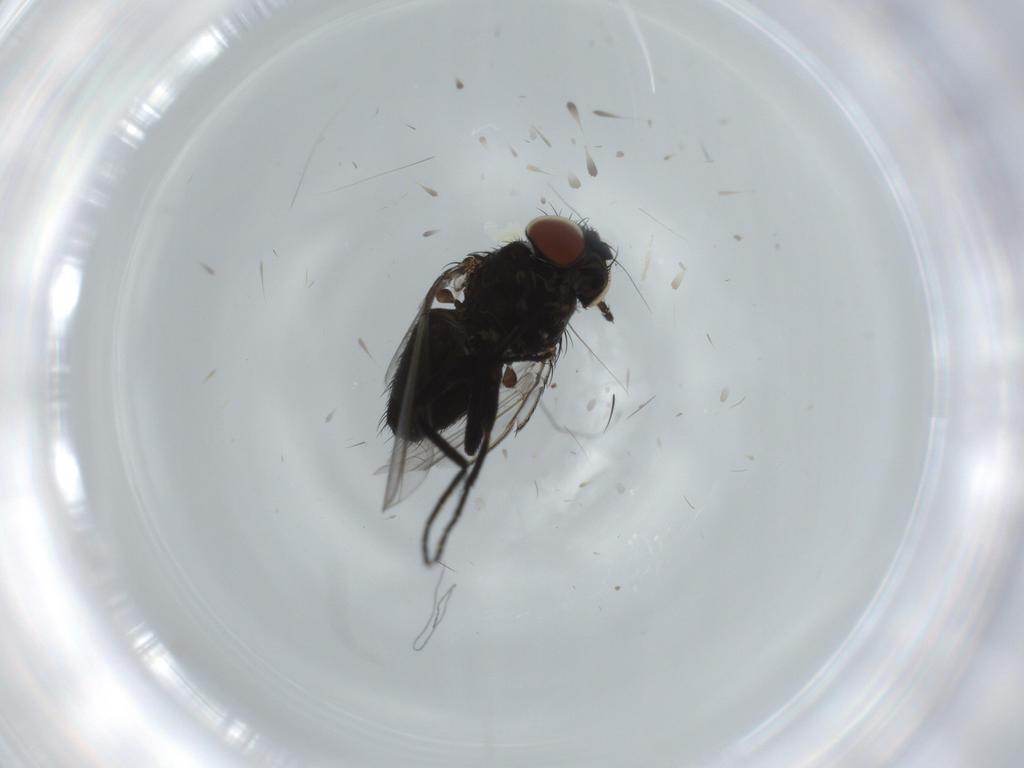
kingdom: Animalia
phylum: Arthropoda
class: Insecta
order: Diptera
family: Milichiidae
